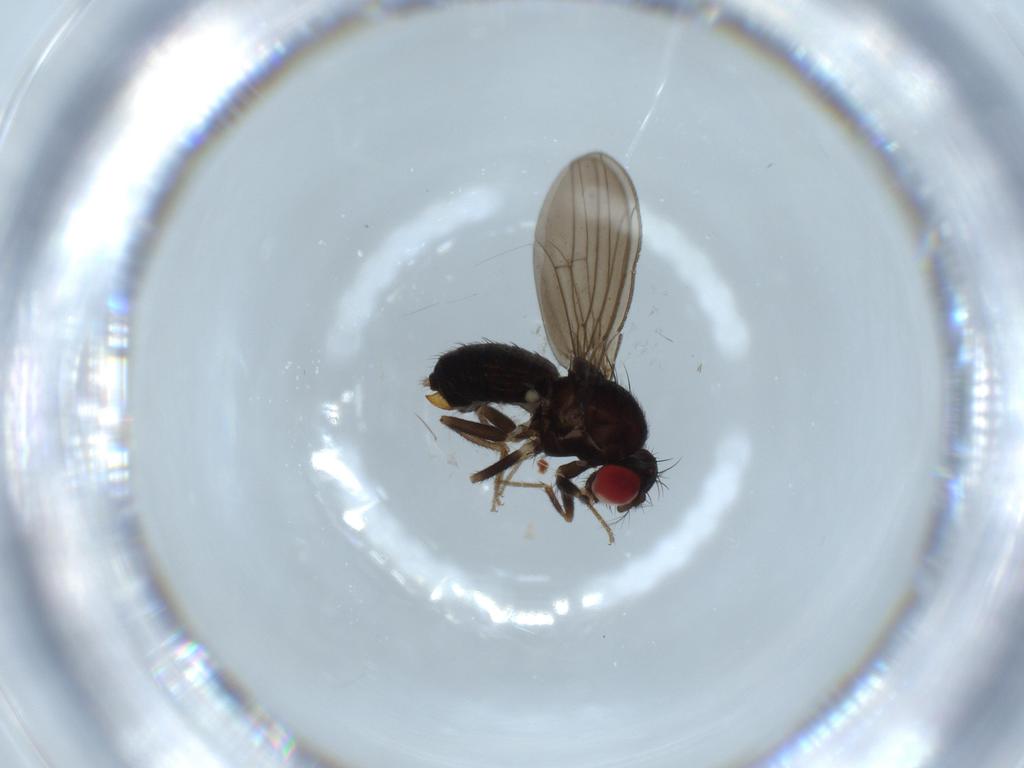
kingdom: Animalia
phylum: Arthropoda
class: Insecta
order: Diptera
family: Drosophilidae
